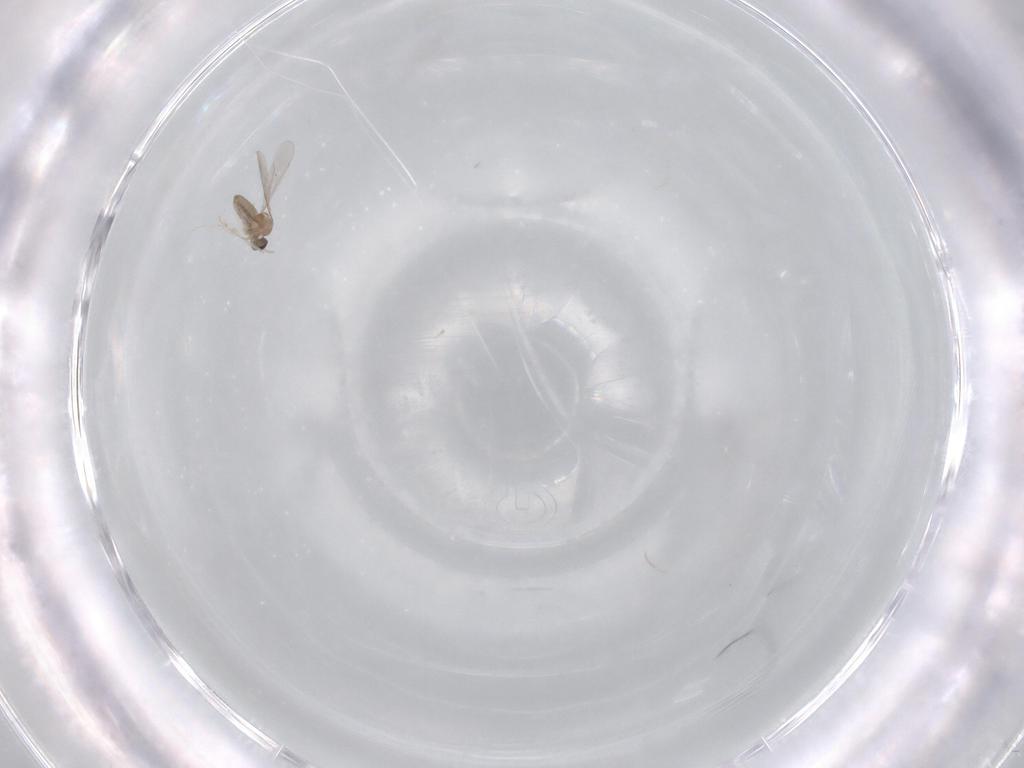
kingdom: Animalia
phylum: Arthropoda
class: Insecta
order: Diptera
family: Cecidomyiidae
